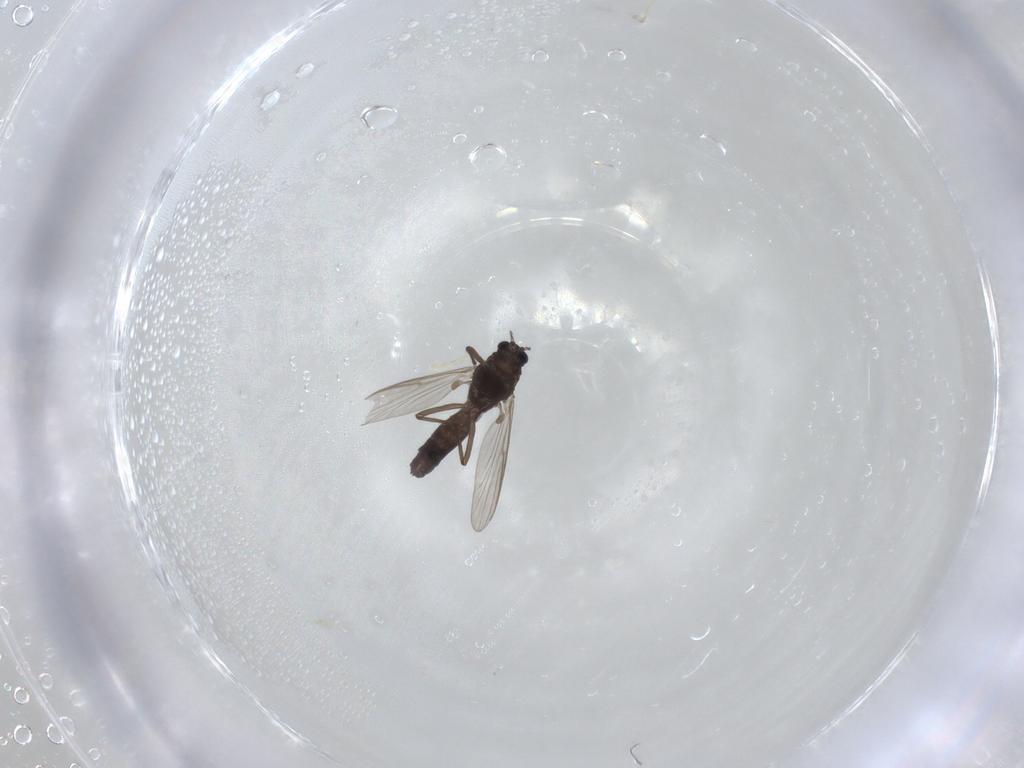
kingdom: Animalia
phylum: Arthropoda
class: Insecta
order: Diptera
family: Chironomidae
